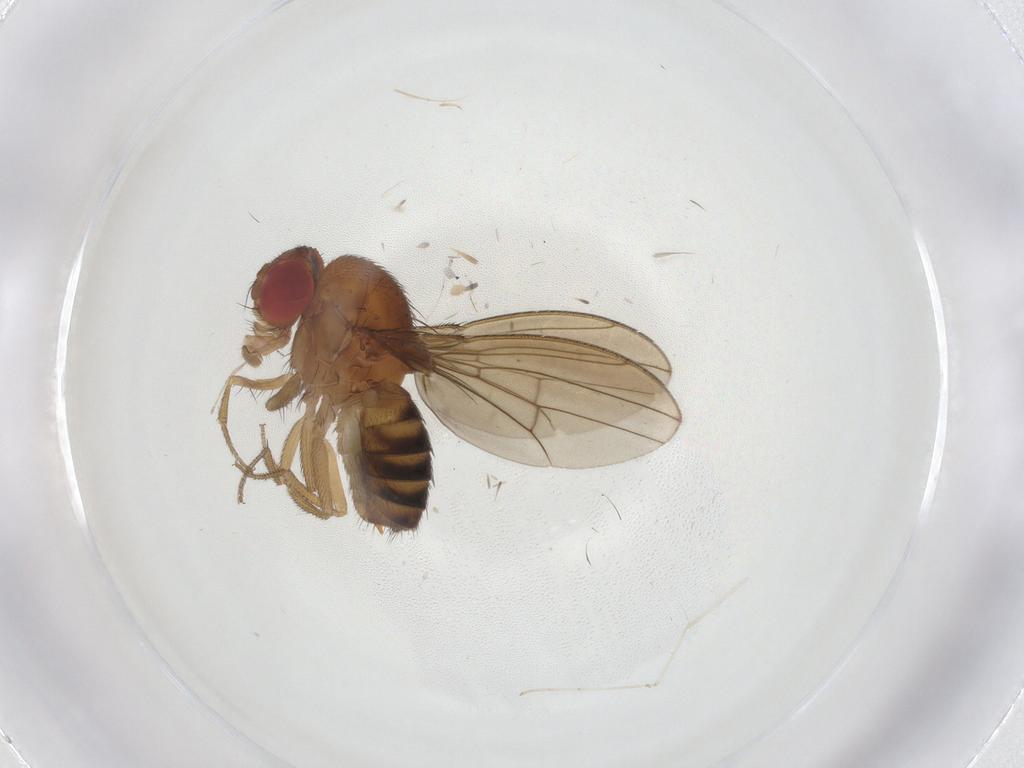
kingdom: Animalia
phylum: Arthropoda
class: Insecta
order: Diptera
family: Drosophilidae
